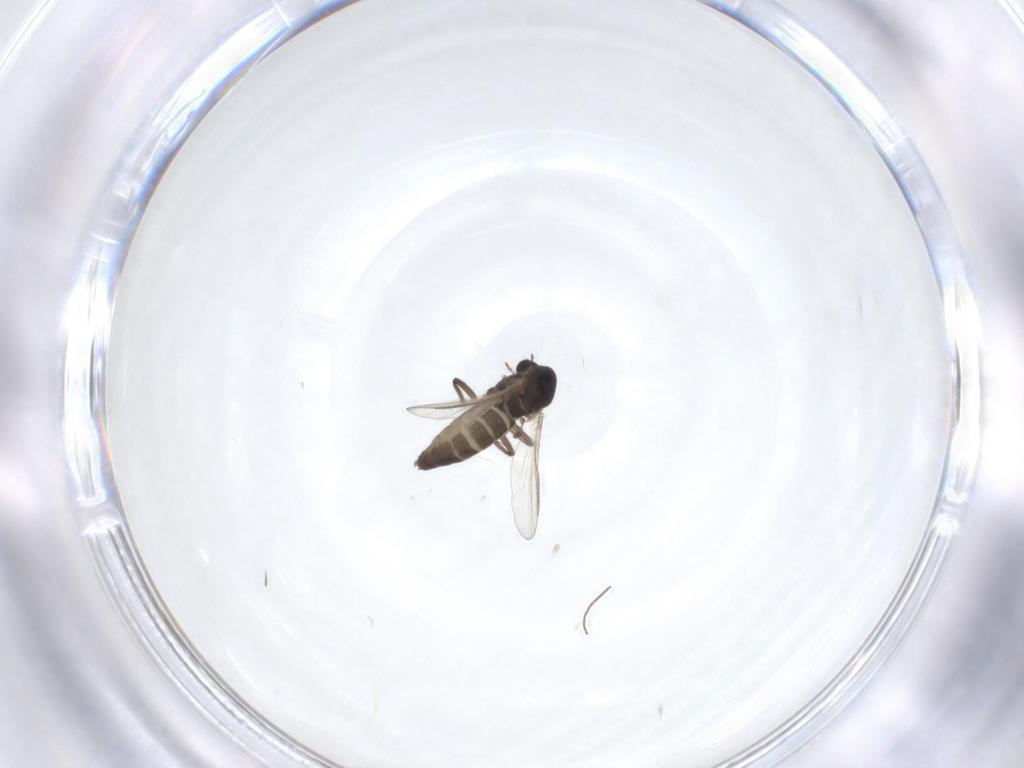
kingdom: Animalia
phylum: Arthropoda
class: Insecta
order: Diptera
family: Chironomidae
